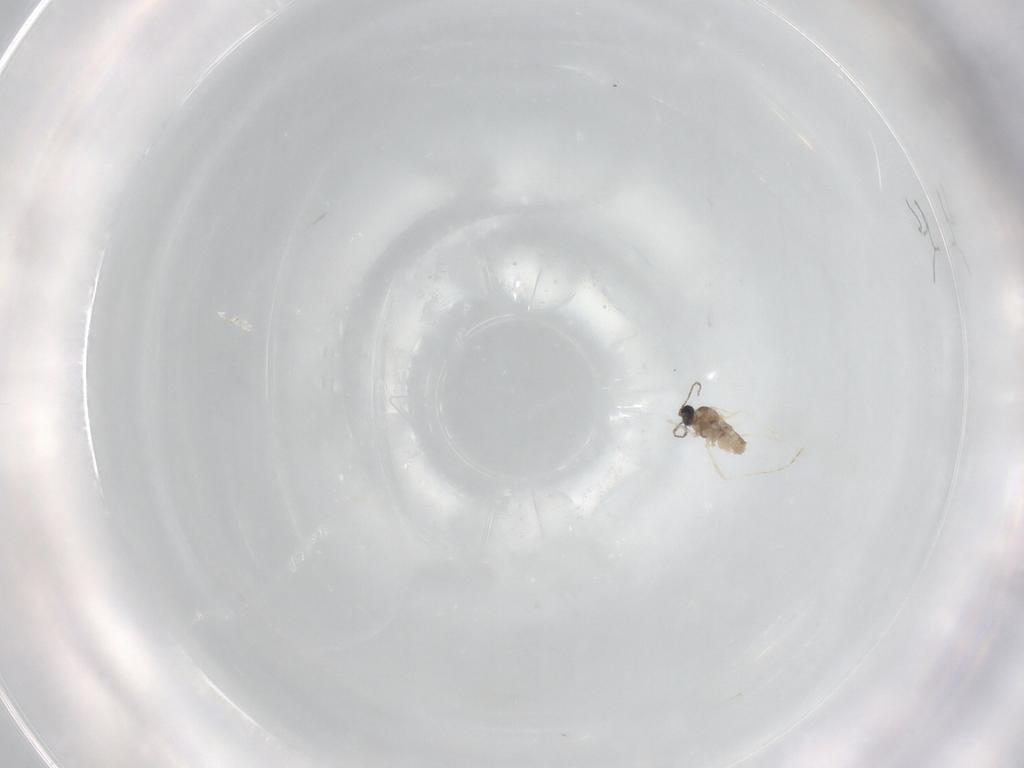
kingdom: Animalia
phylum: Arthropoda
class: Insecta
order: Diptera
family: Cecidomyiidae
